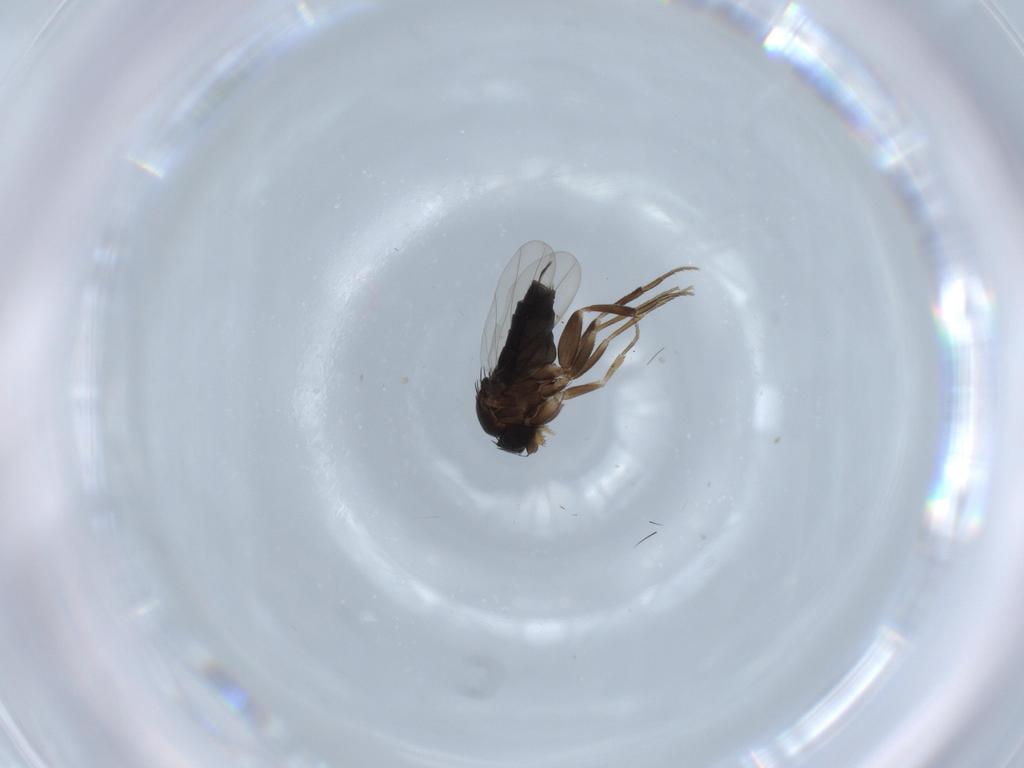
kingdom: Animalia
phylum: Arthropoda
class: Insecta
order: Diptera
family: Phoridae
